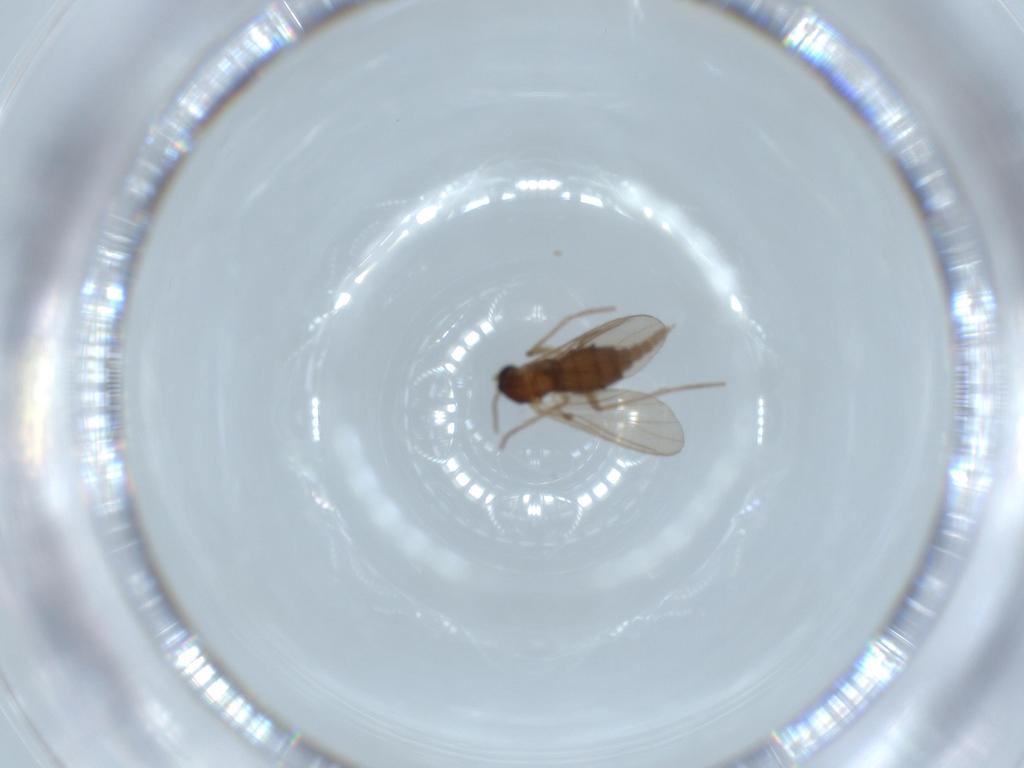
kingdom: Animalia
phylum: Arthropoda
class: Insecta
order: Diptera
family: Sciaridae
